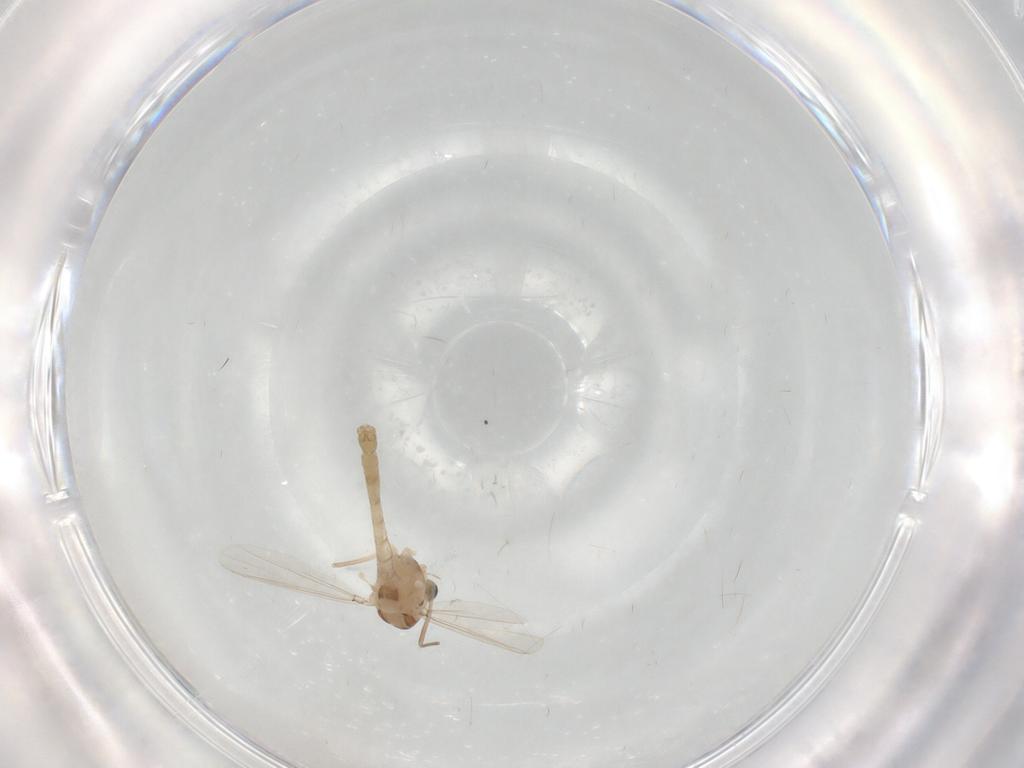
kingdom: Animalia
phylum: Arthropoda
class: Insecta
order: Diptera
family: Chironomidae
